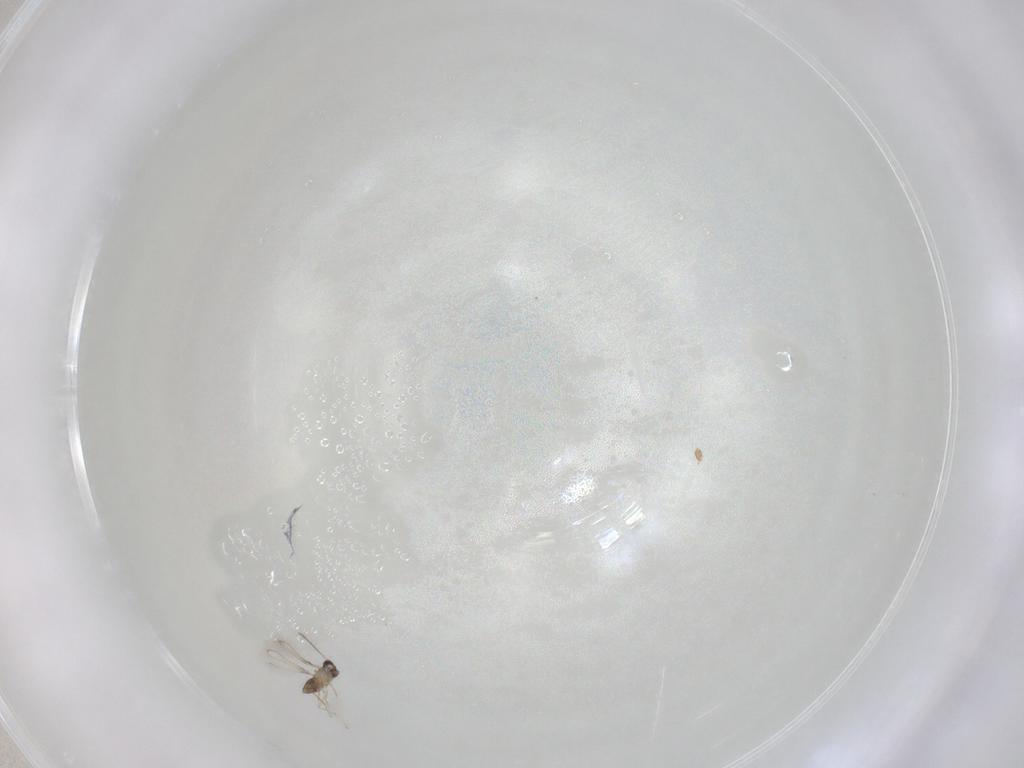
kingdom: Animalia
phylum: Arthropoda
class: Insecta
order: Hymenoptera
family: Mymaridae
